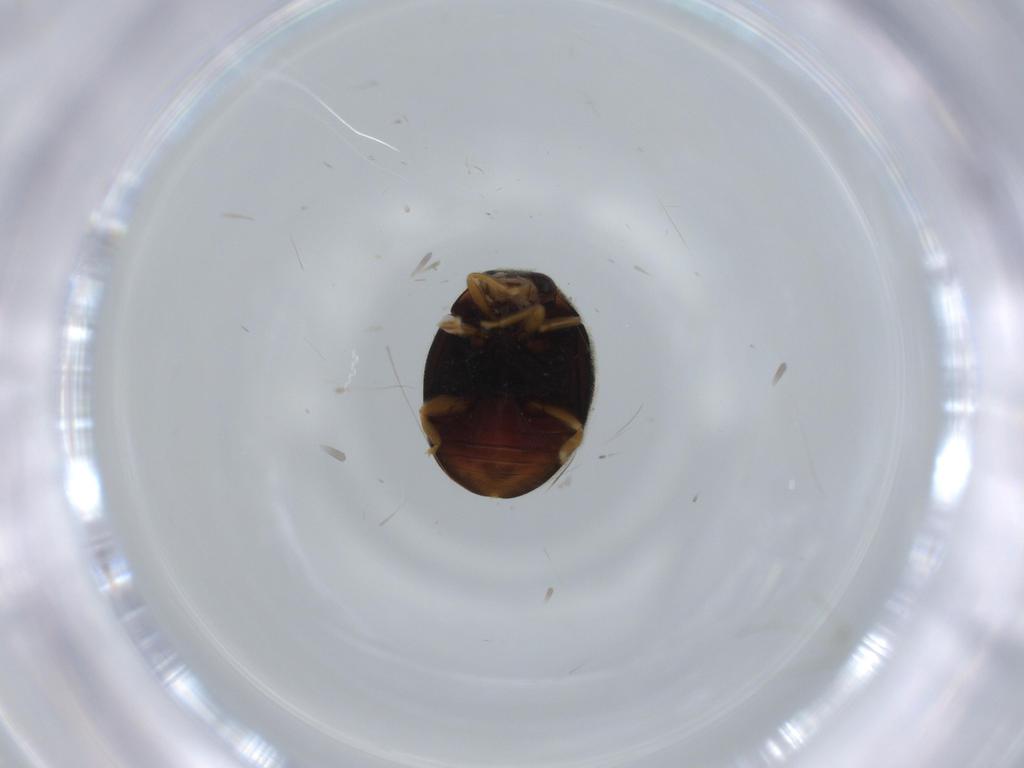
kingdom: Animalia
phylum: Arthropoda
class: Insecta
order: Coleoptera
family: Coccinellidae
